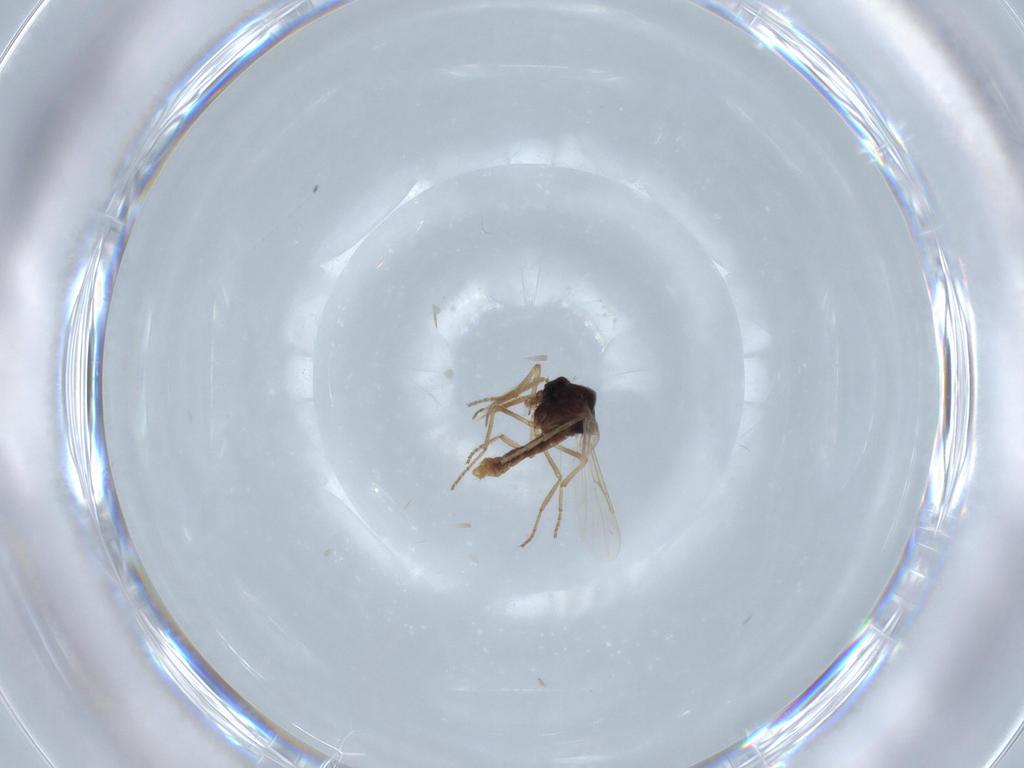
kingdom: Animalia
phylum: Arthropoda
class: Insecta
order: Diptera
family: Ceratopogonidae
